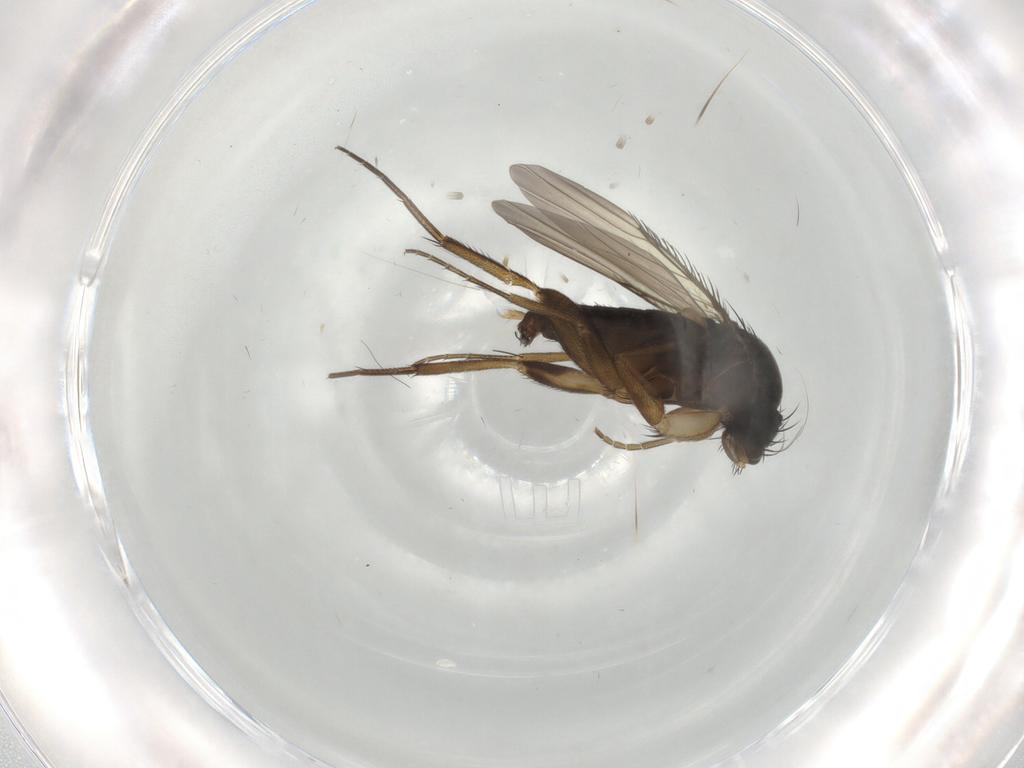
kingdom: Animalia
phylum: Arthropoda
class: Insecta
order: Diptera
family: Phoridae
